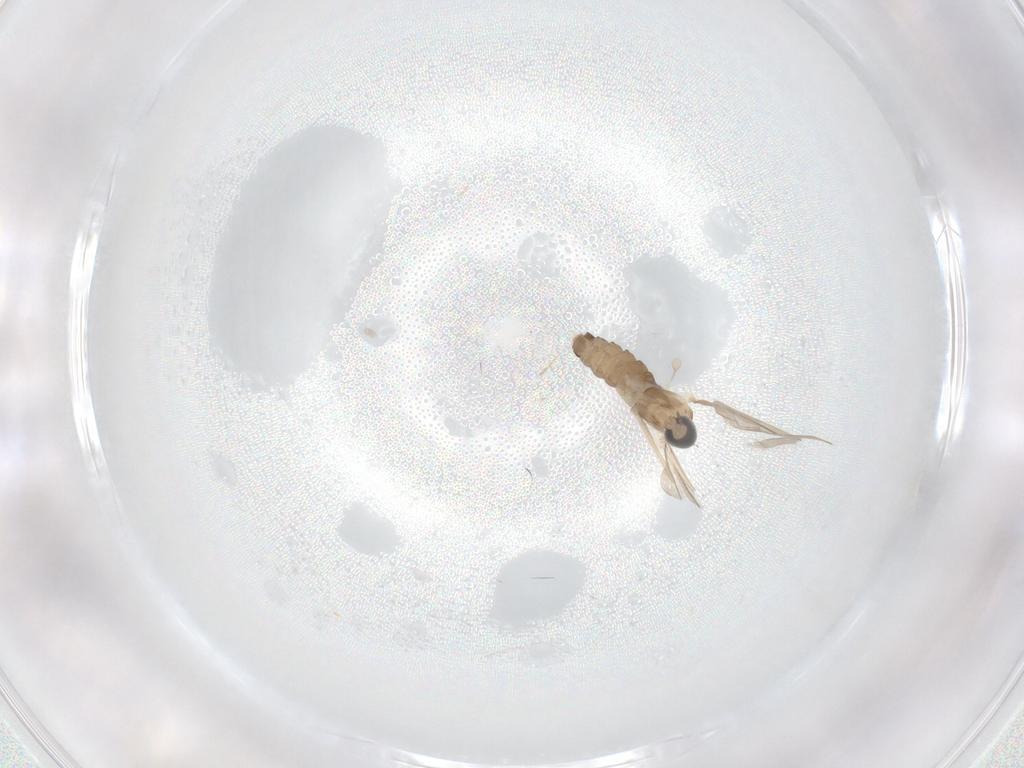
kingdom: Animalia
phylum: Arthropoda
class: Insecta
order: Diptera
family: Cecidomyiidae
